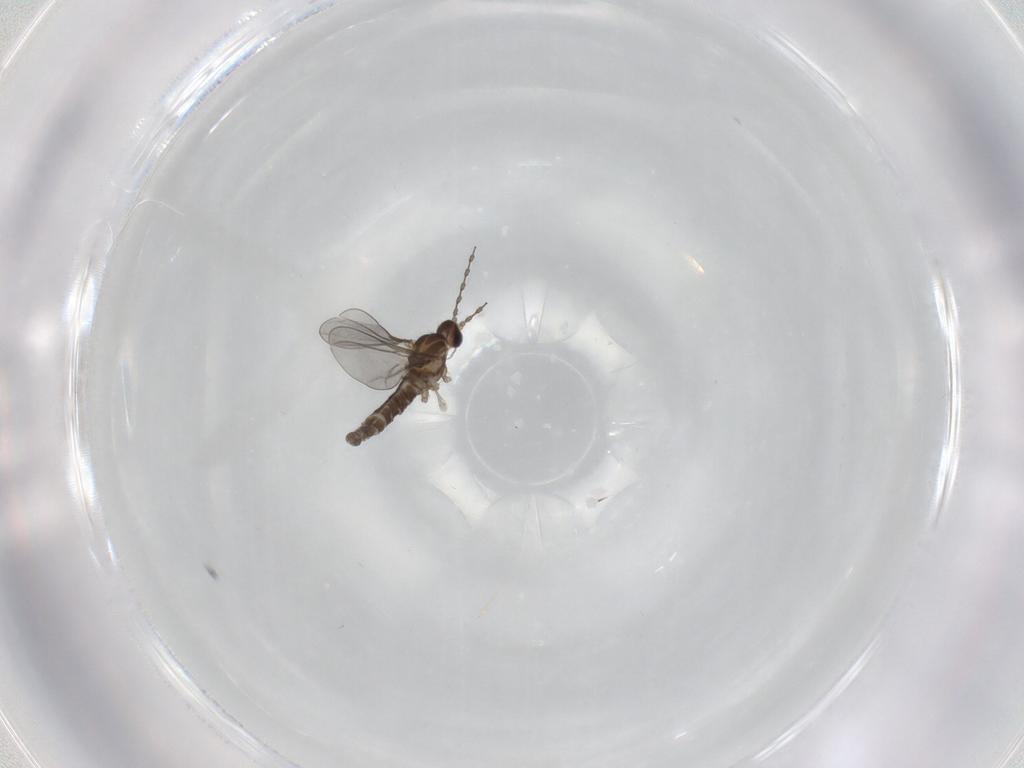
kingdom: Animalia
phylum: Arthropoda
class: Insecta
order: Diptera
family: Cecidomyiidae
